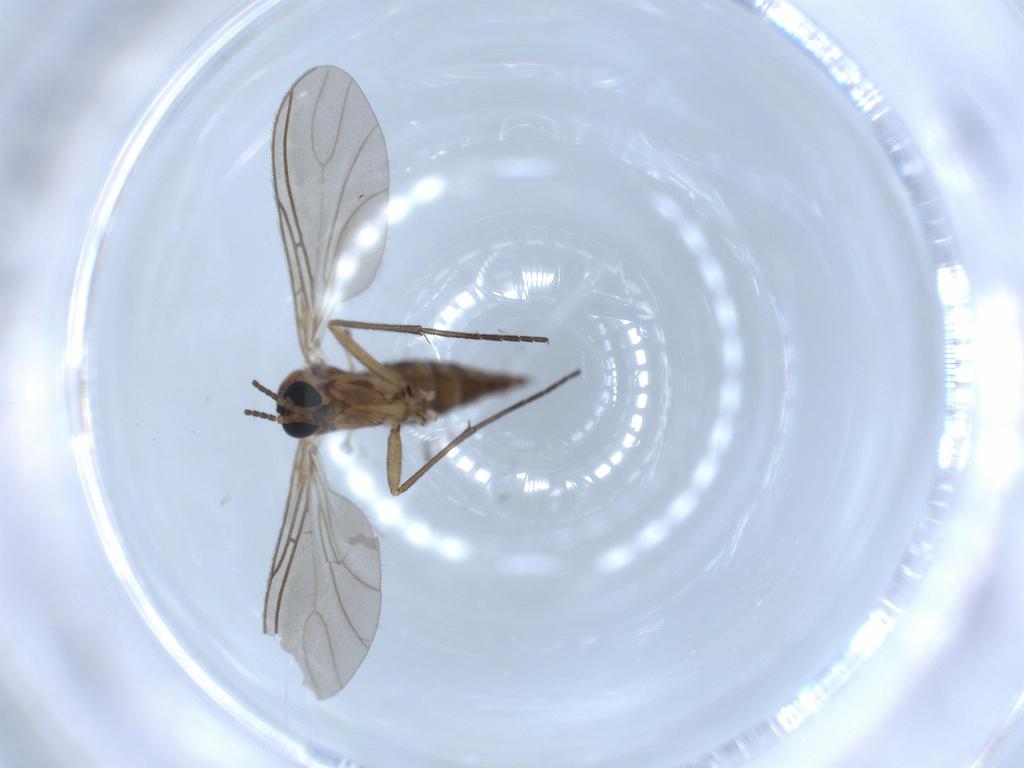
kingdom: Animalia
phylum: Arthropoda
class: Insecta
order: Diptera
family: Sciaridae
